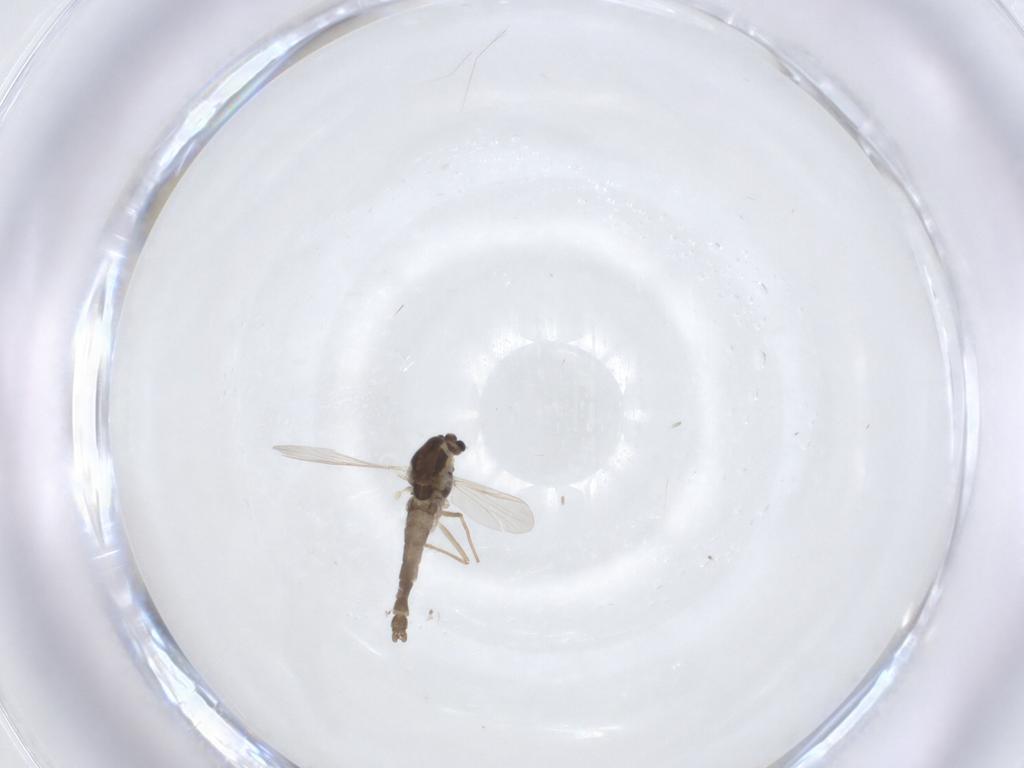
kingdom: Animalia
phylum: Arthropoda
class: Insecta
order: Diptera
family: Chironomidae
